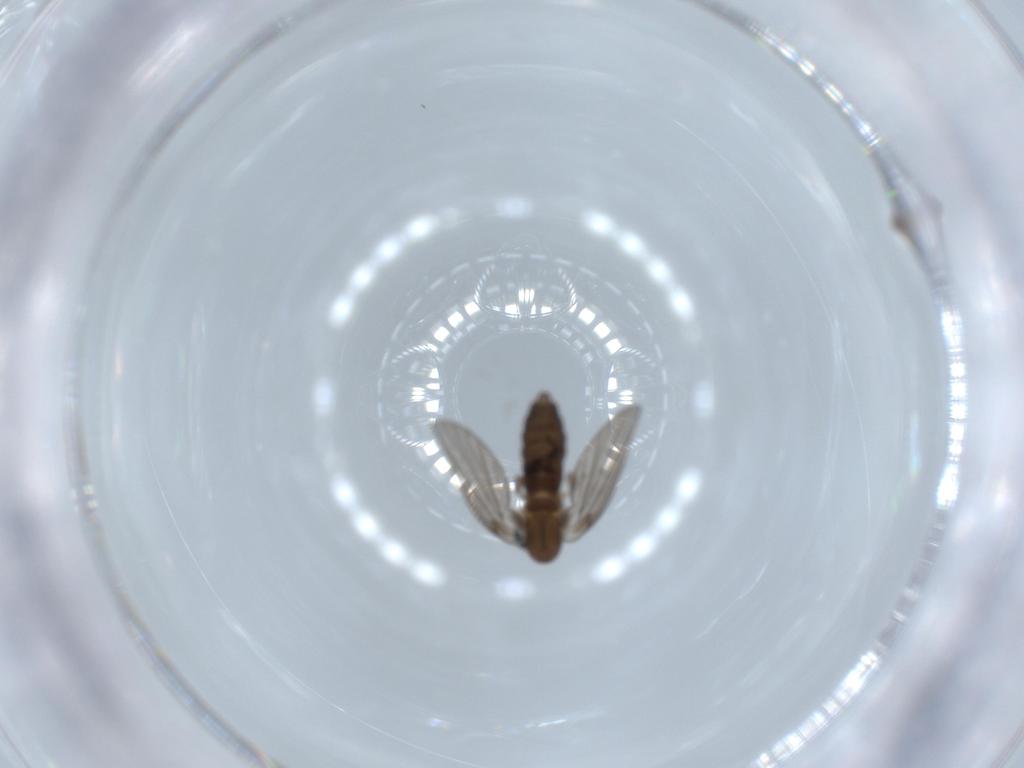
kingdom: Animalia
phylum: Arthropoda
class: Insecta
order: Diptera
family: Psychodidae
